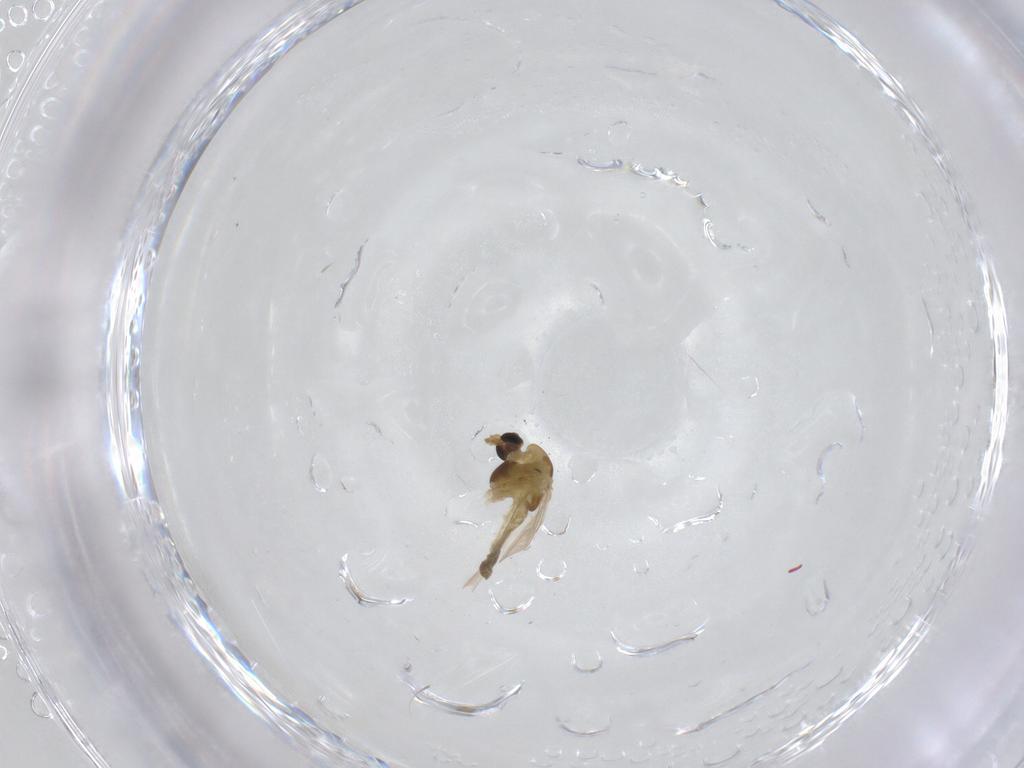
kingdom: Animalia
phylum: Arthropoda
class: Insecta
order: Diptera
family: Chironomidae
